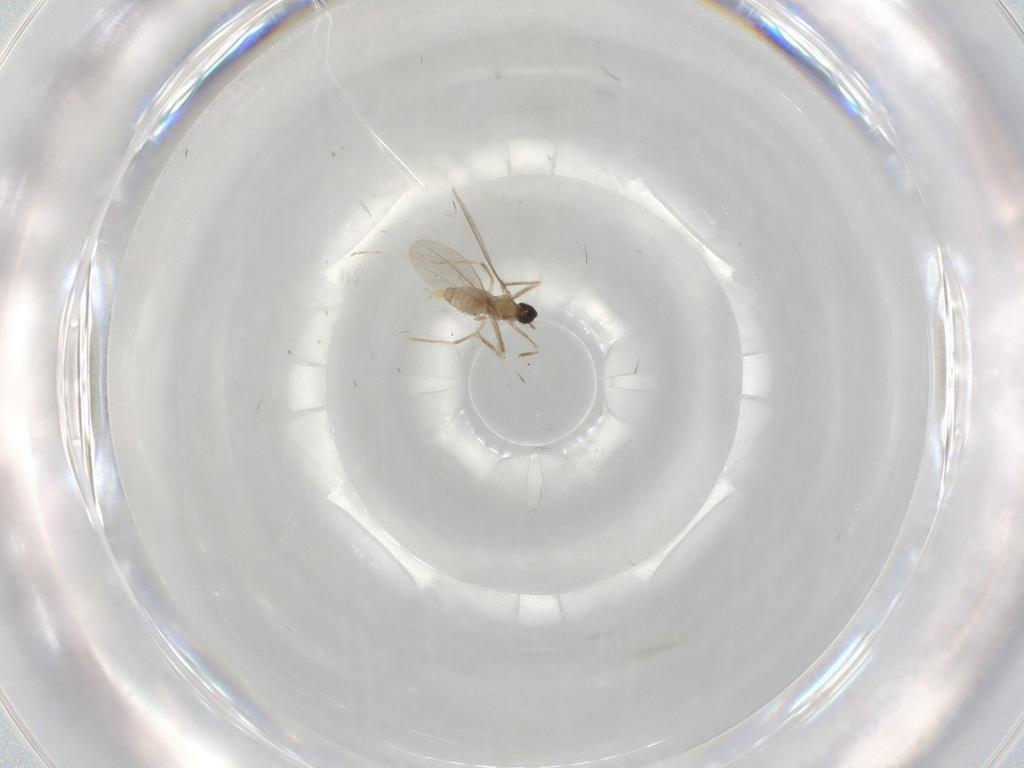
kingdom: Animalia
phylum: Arthropoda
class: Insecta
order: Diptera
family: Cecidomyiidae
